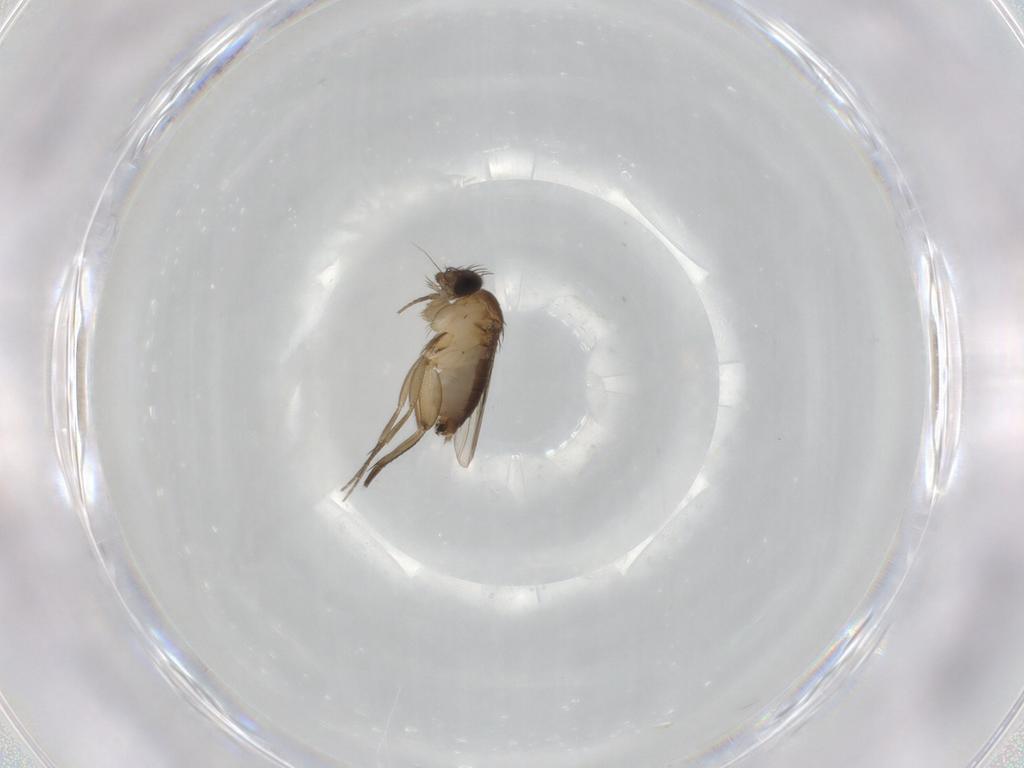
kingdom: Animalia
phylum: Arthropoda
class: Insecta
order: Diptera
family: Phoridae
